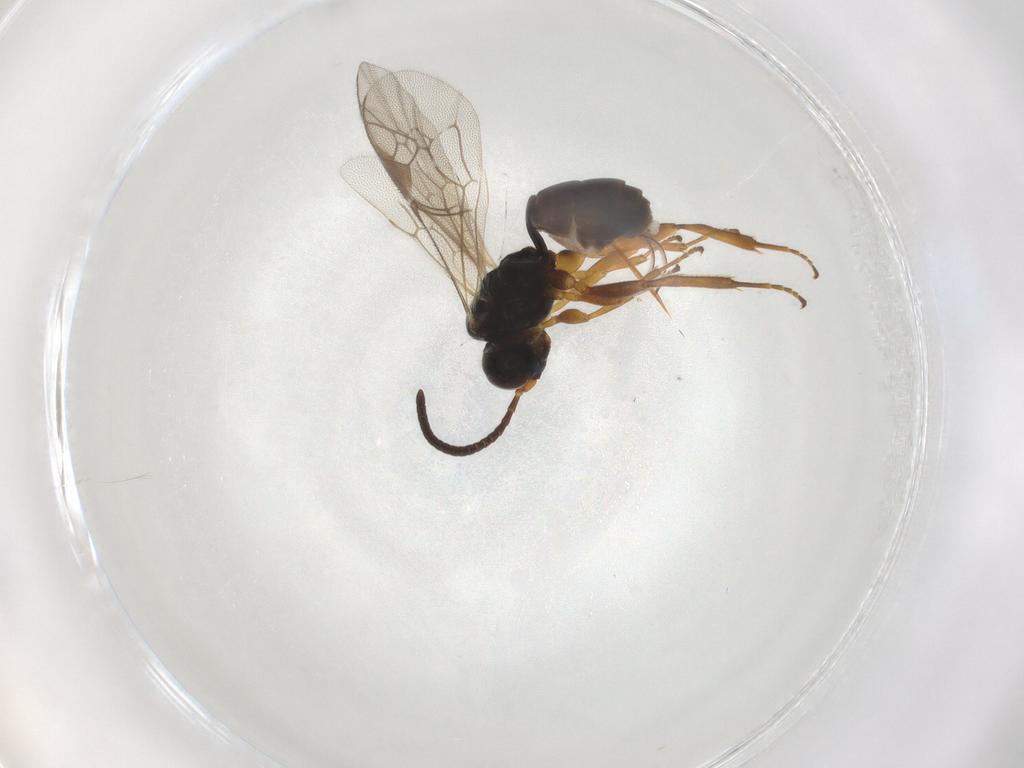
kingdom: Animalia
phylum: Arthropoda
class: Insecta
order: Hymenoptera
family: Ichneumonidae
